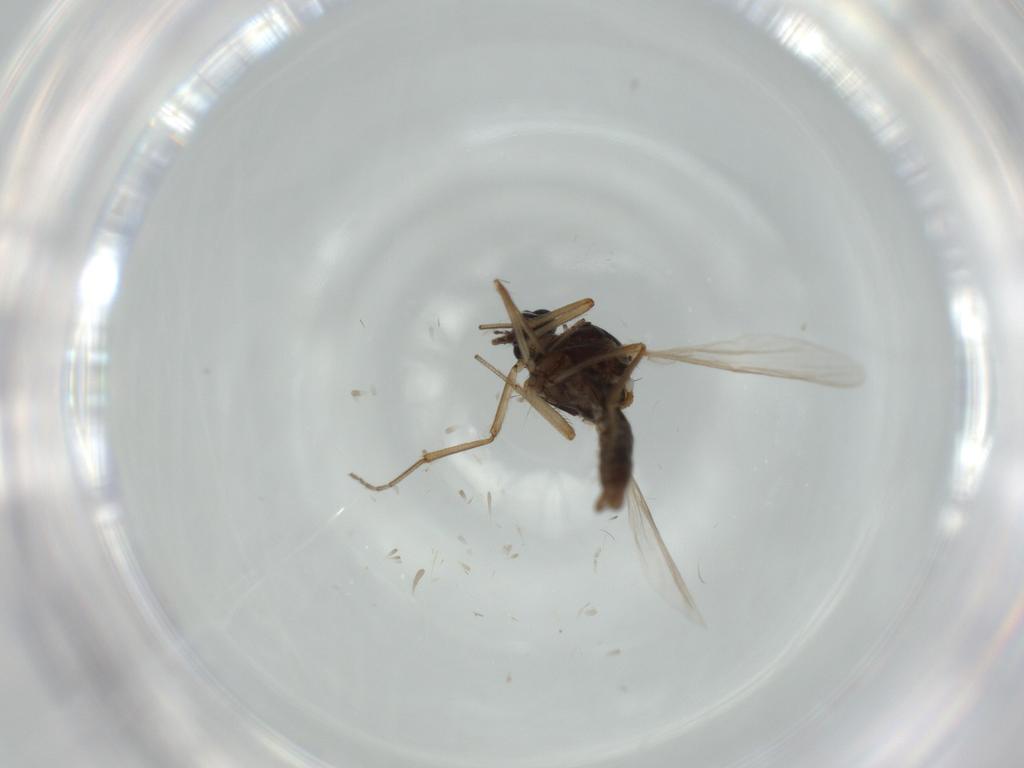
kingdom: Animalia
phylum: Arthropoda
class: Insecta
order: Diptera
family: Ceratopogonidae
